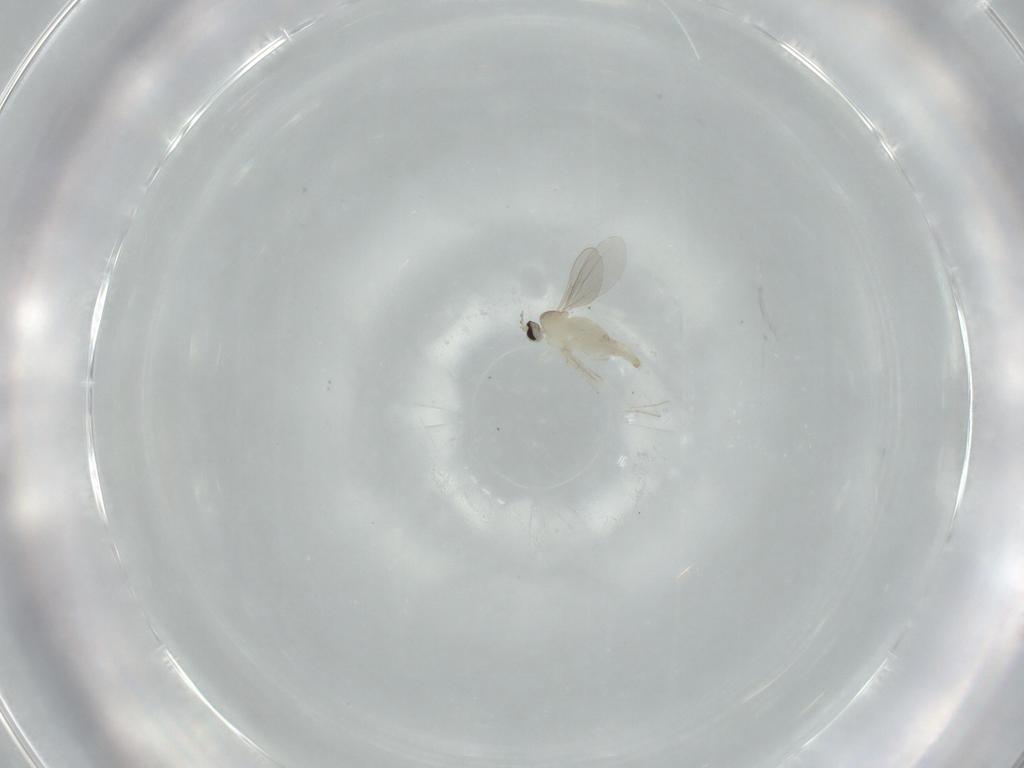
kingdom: Animalia
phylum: Arthropoda
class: Insecta
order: Diptera
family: Cecidomyiidae
